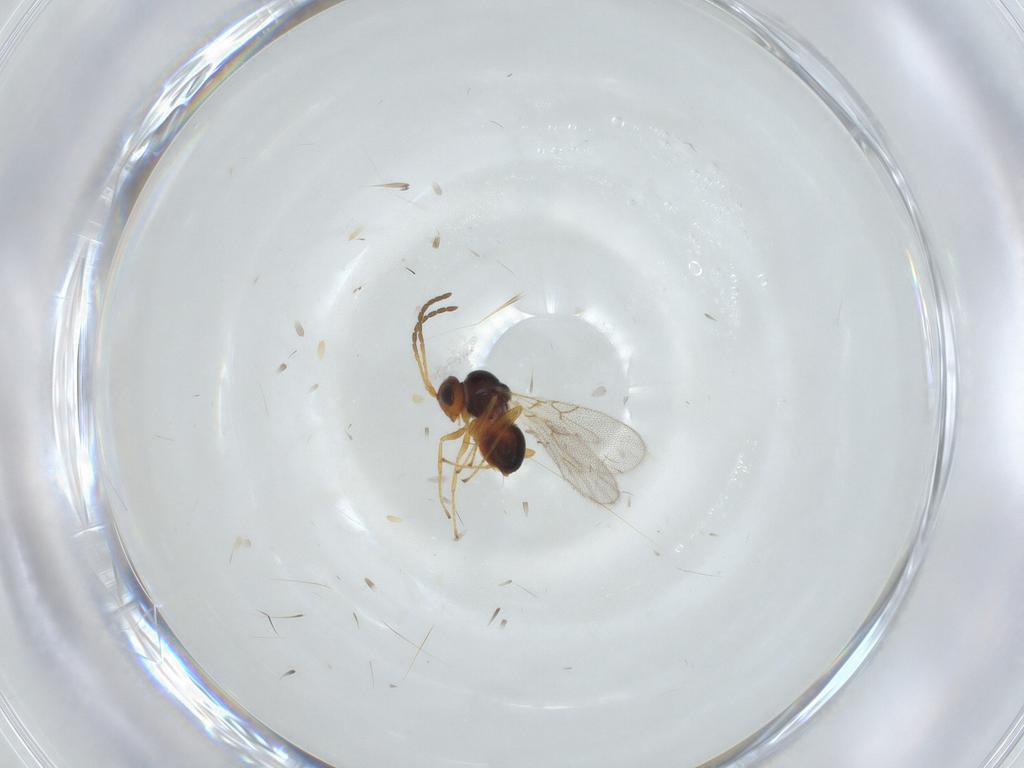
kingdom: Animalia
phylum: Arthropoda
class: Insecta
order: Hymenoptera
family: Figitidae
